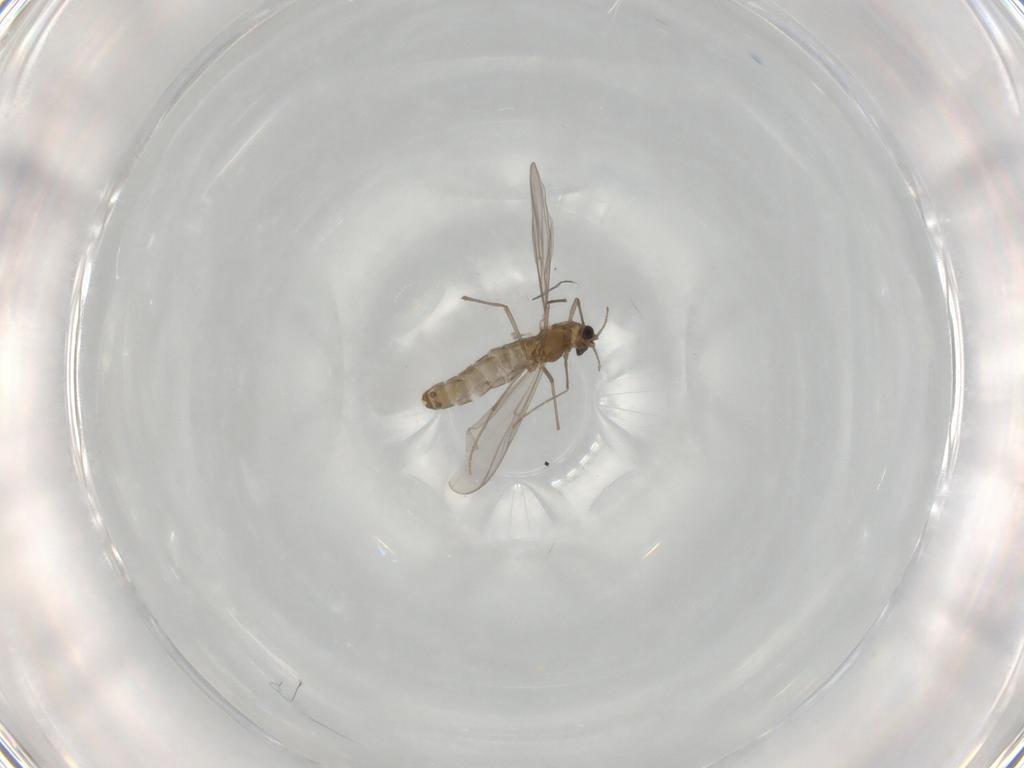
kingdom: Animalia
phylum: Arthropoda
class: Insecta
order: Diptera
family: Chironomidae
